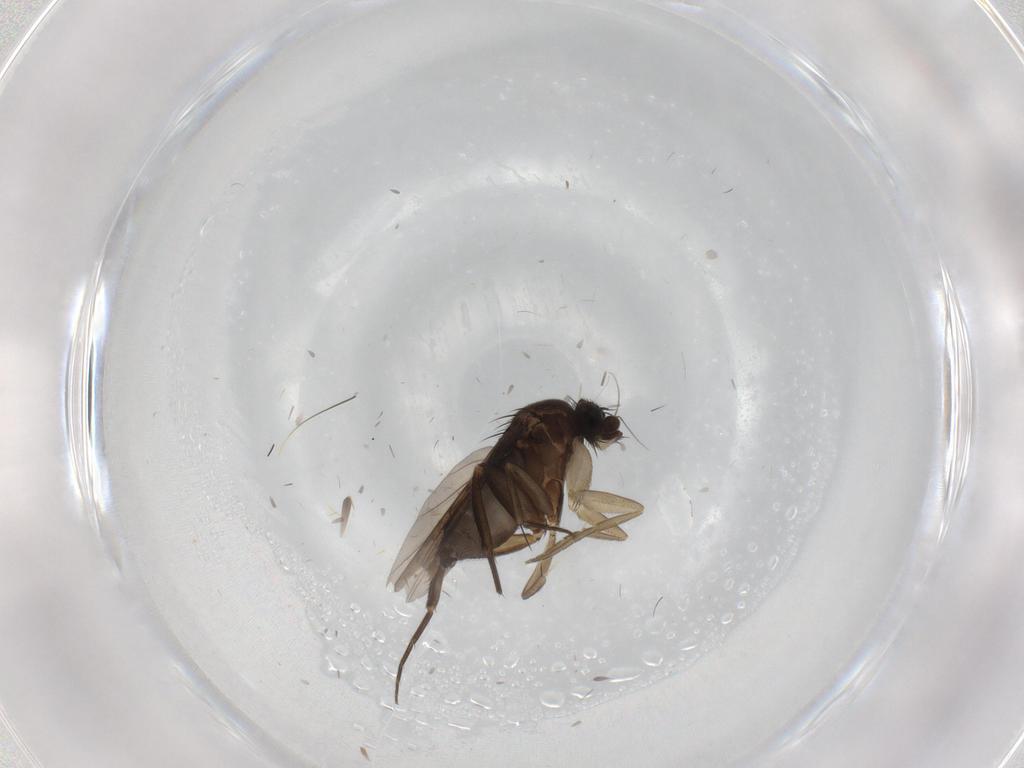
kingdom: Animalia
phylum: Arthropoda
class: Insecta
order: Diptera
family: Phoridae
